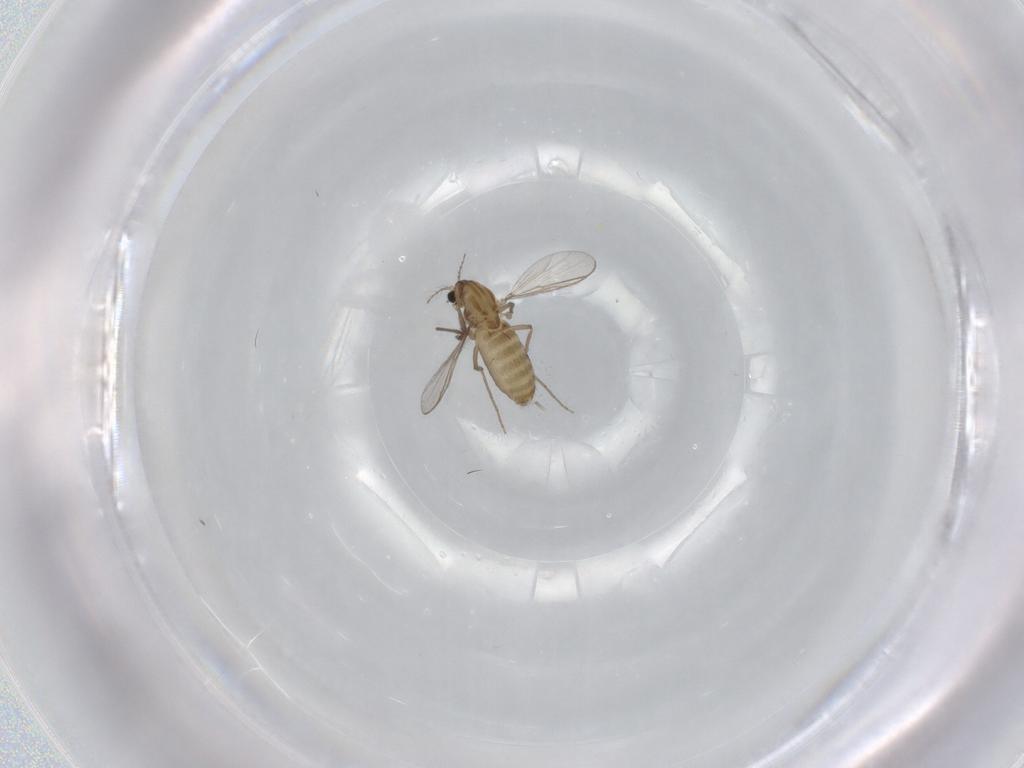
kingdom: Animalia
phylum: Arthropoda
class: Insecta
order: Diptera
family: Chironomidae
